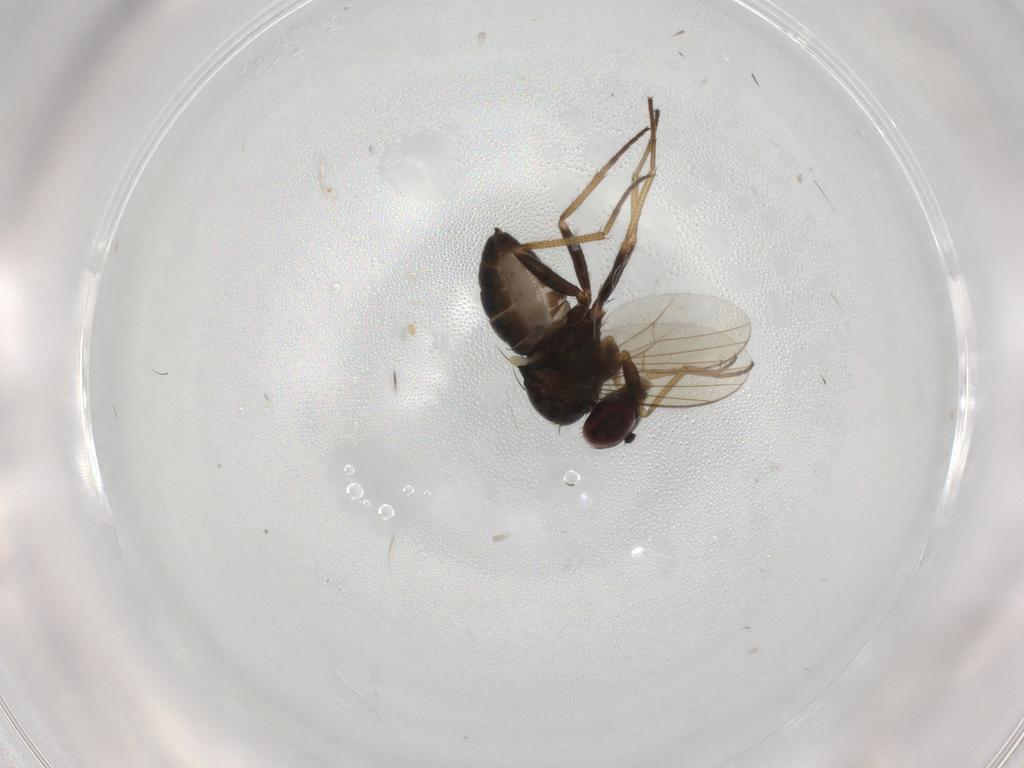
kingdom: Animalia
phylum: Arthropoda
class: Insecta
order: Diptera
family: Dolichopodidae
